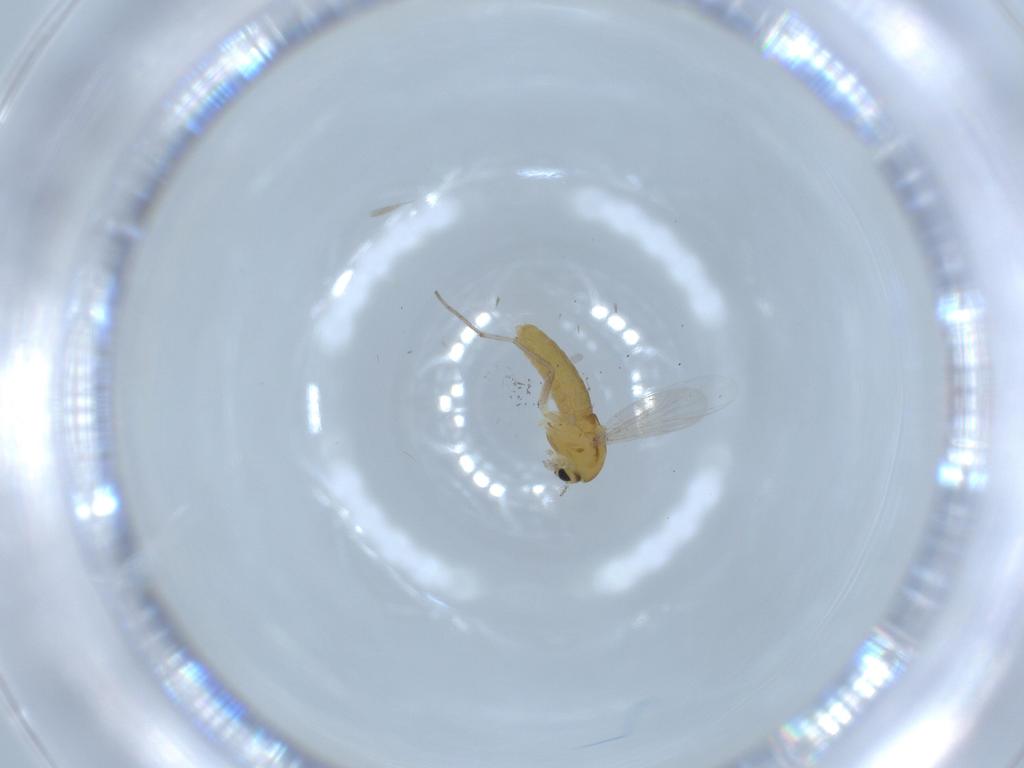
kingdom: Animalia
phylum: Arthropoda
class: Insecta
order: Diptera
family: Chironomidae
